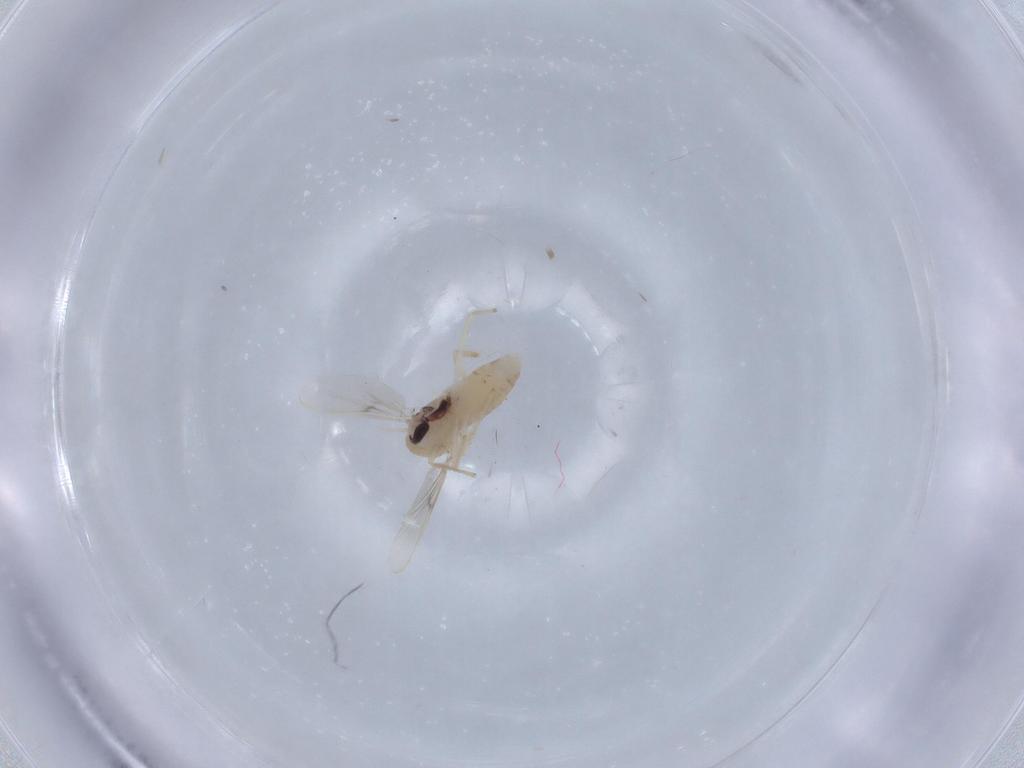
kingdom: Animalia
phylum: Arthropoda
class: Insecta
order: Diptera
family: Chironomidae
